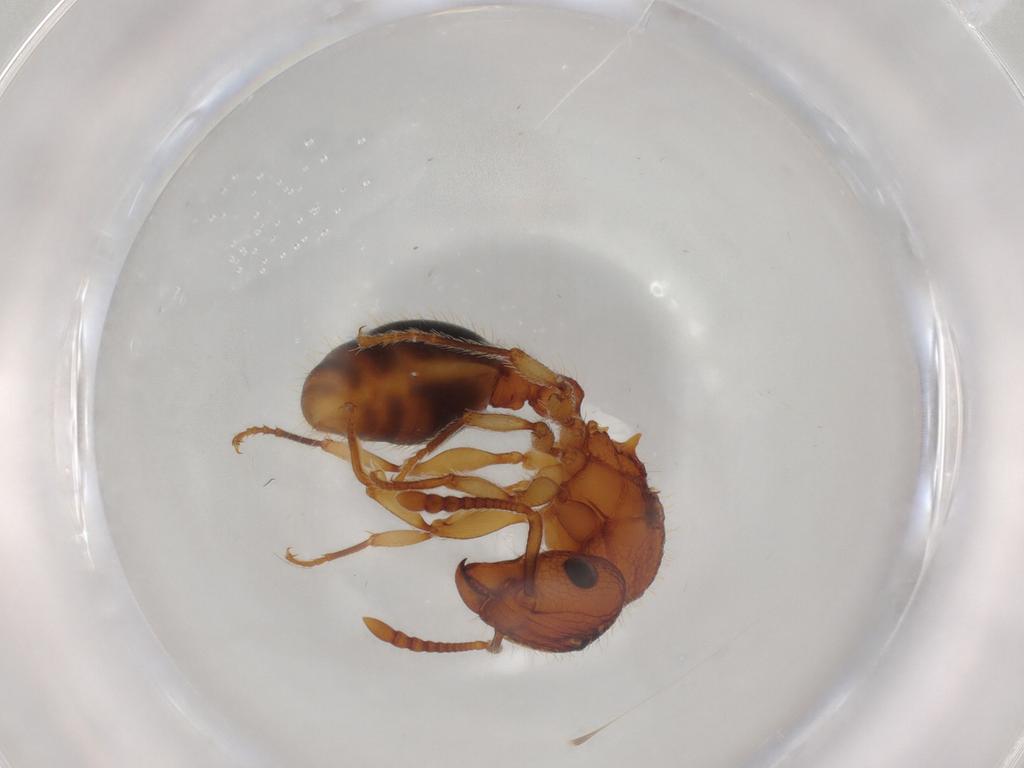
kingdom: Animalia
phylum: Arthropoda
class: Insecta
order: Hymenoptera
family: Formicidae
